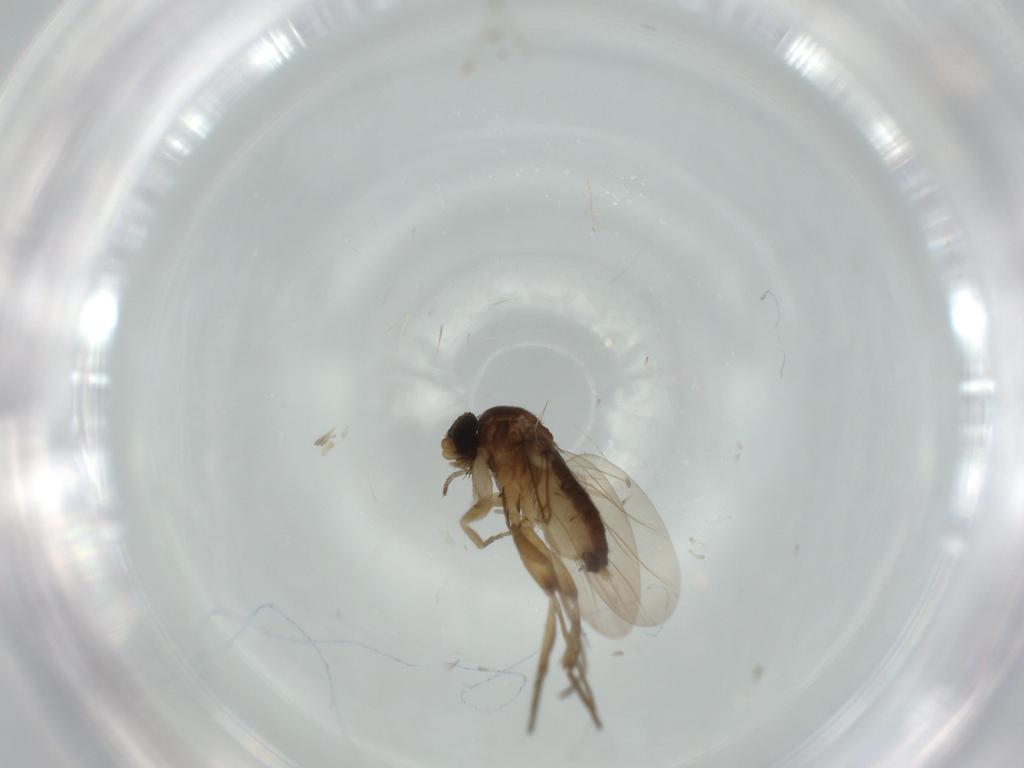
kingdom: Animalia
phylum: Arthropoda
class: Insecta
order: Diptera
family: Phoridae
